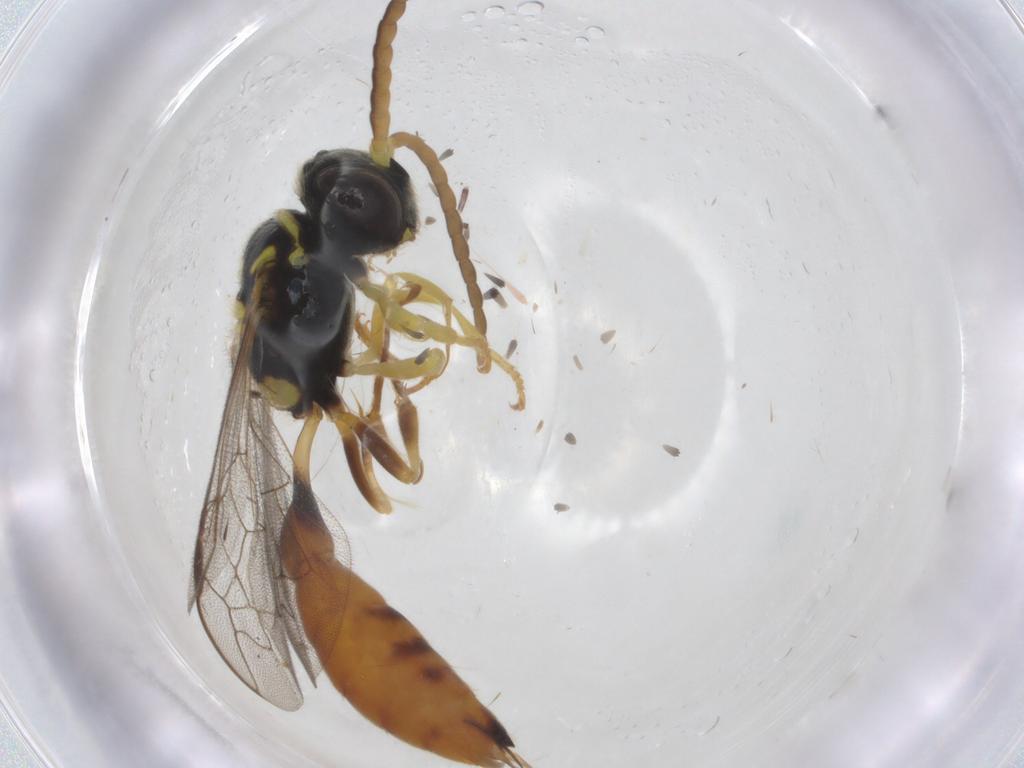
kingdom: Animalia
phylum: Arthropoda
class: Insecta
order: Hymenoptera
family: Crabronidae
